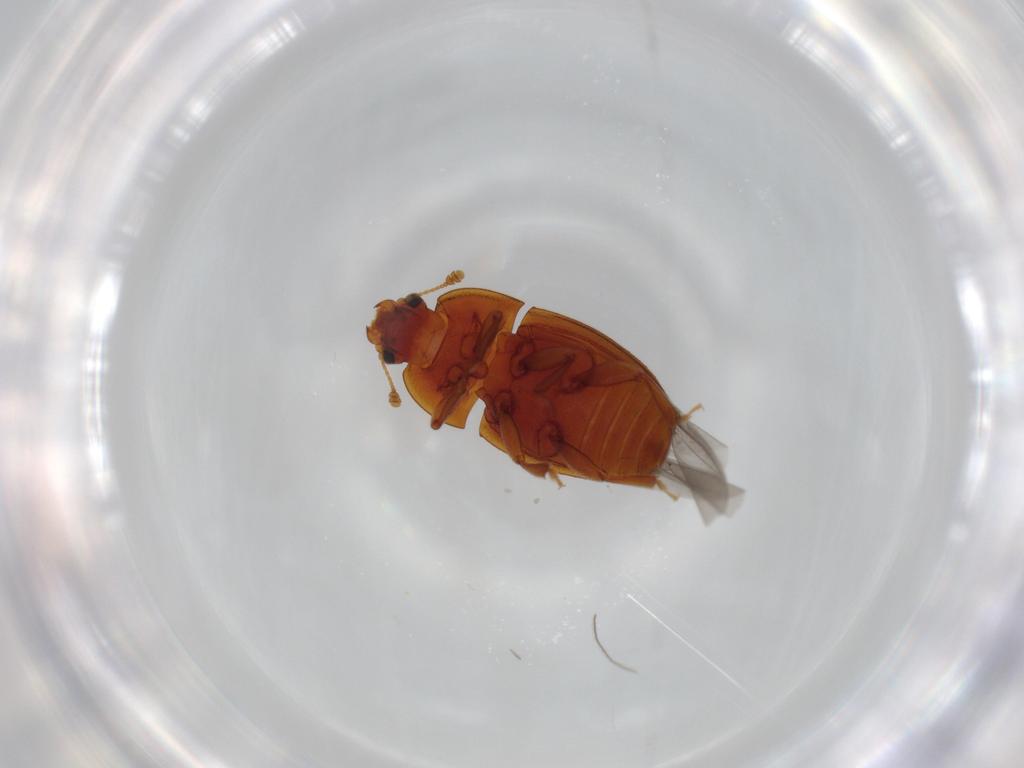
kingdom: Animalia
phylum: Arthropoda
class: Insecta
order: Coleoptera
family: Nitidulidae
